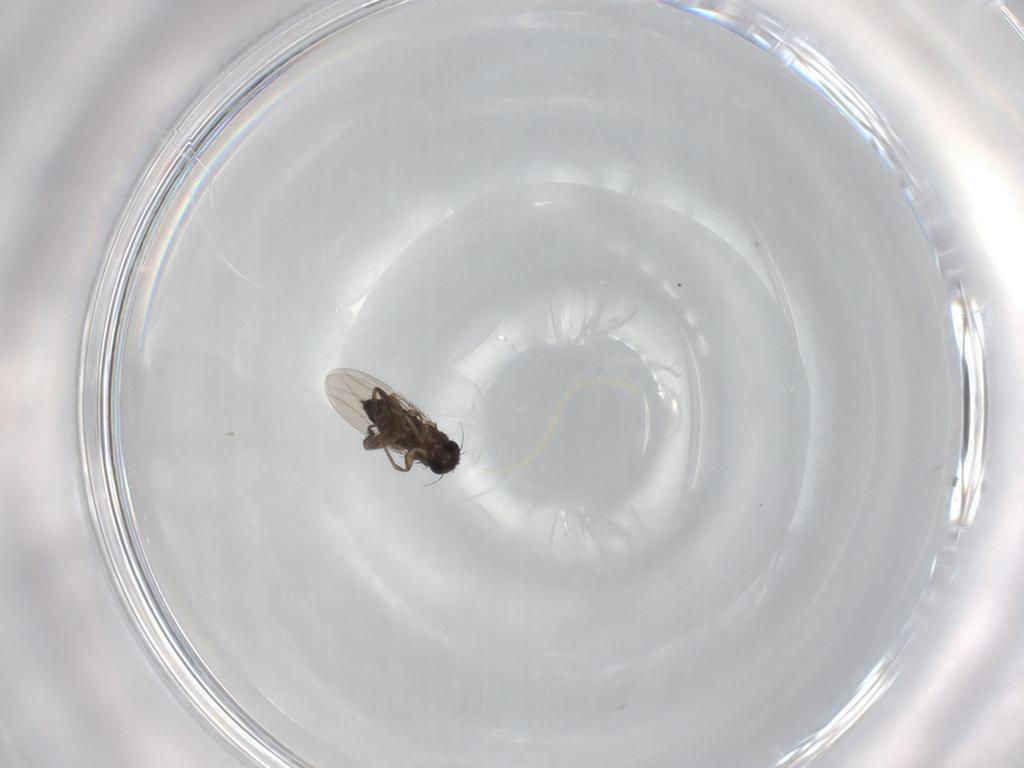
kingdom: Animalia
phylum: Arthropoda
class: Insecta
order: Diptera
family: Phoridae
